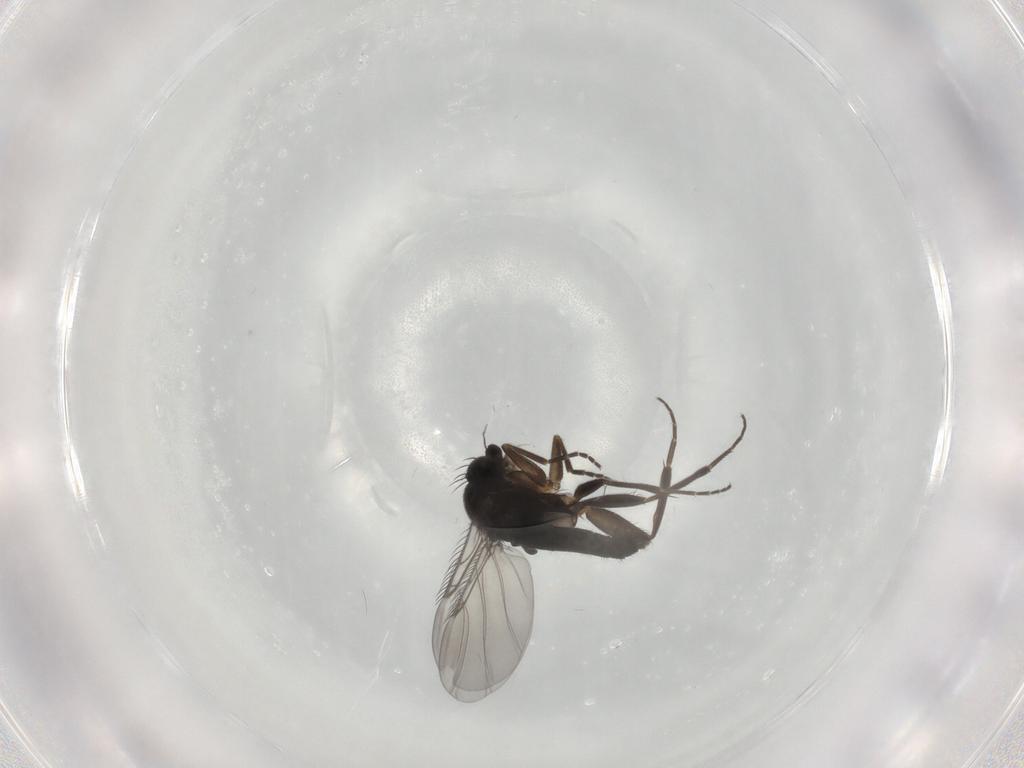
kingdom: Animalia
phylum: Arthropoda
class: Insecta
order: Diptera
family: Phoridae
